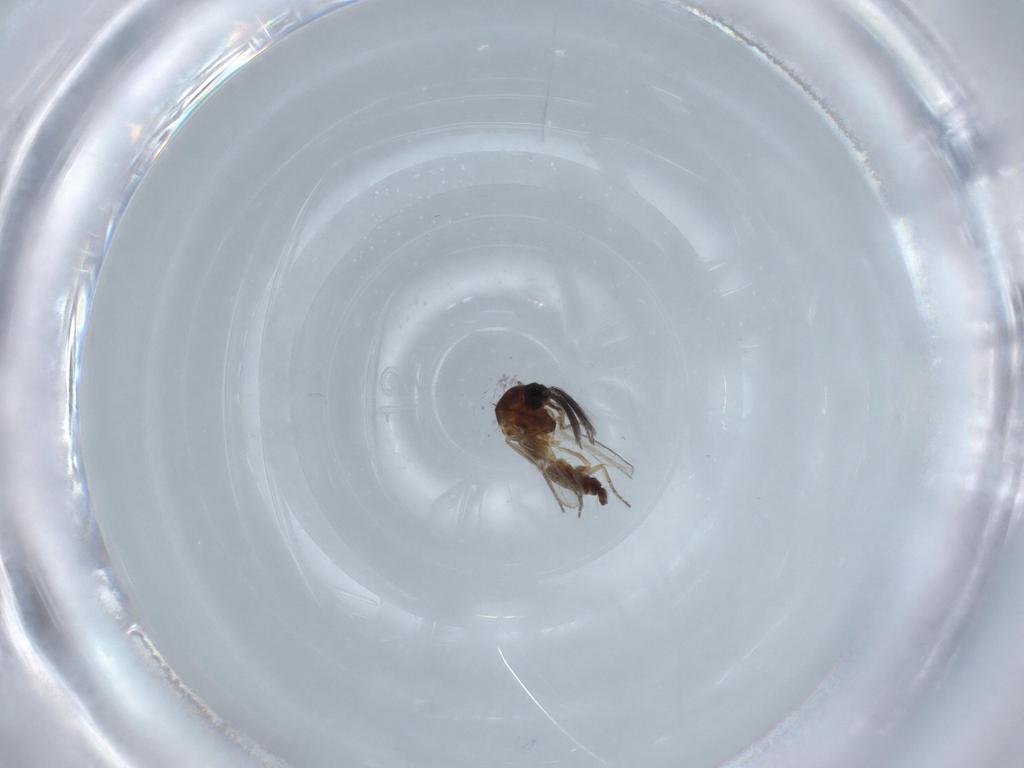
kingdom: Animalia
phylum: Arthropoda
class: Insecta
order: Diptera
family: Ceratopogonidae
